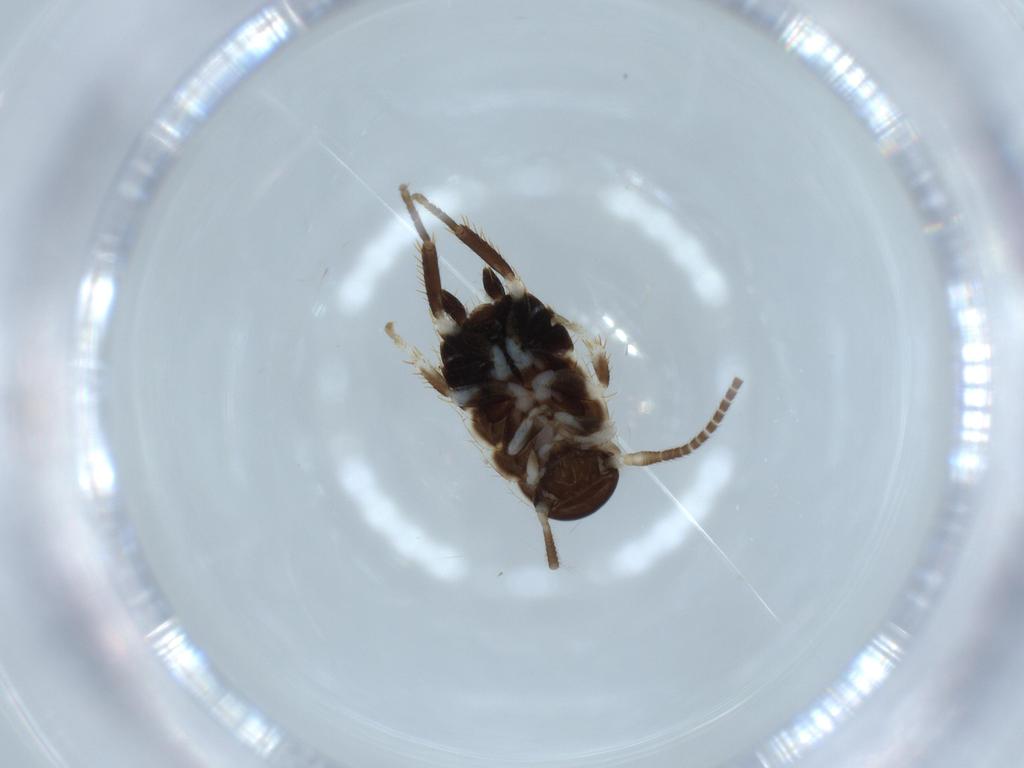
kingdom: Animalia
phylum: Arthropoda
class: Insecta
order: Blattodea
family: Ectobiidae
